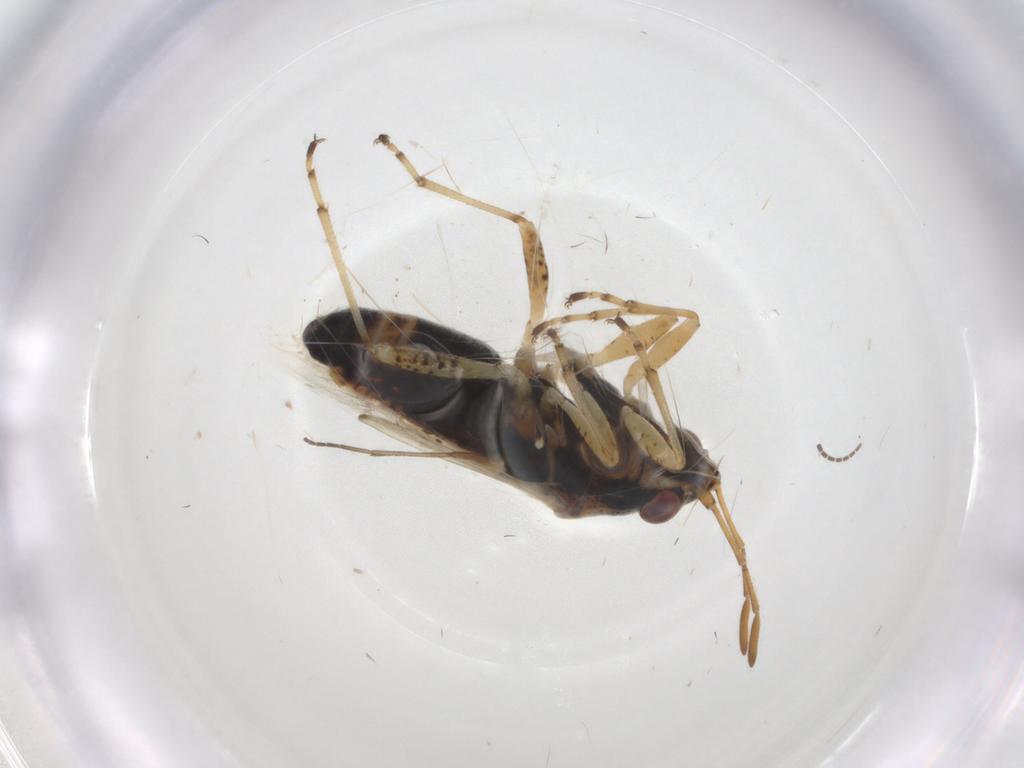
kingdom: Animalia
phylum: Arthropoda
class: Insecta
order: Hemiptera
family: Lygaeidae
